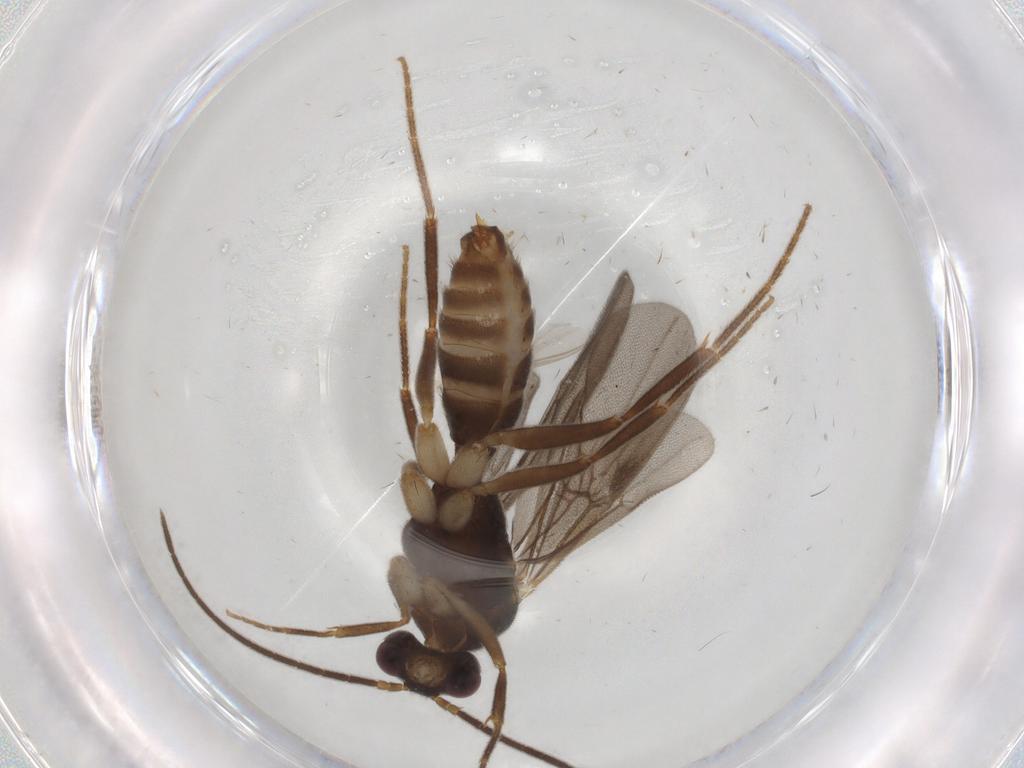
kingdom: Animalia
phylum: Arthropoda
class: Insecta
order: Hymenoptera
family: Formicidae
